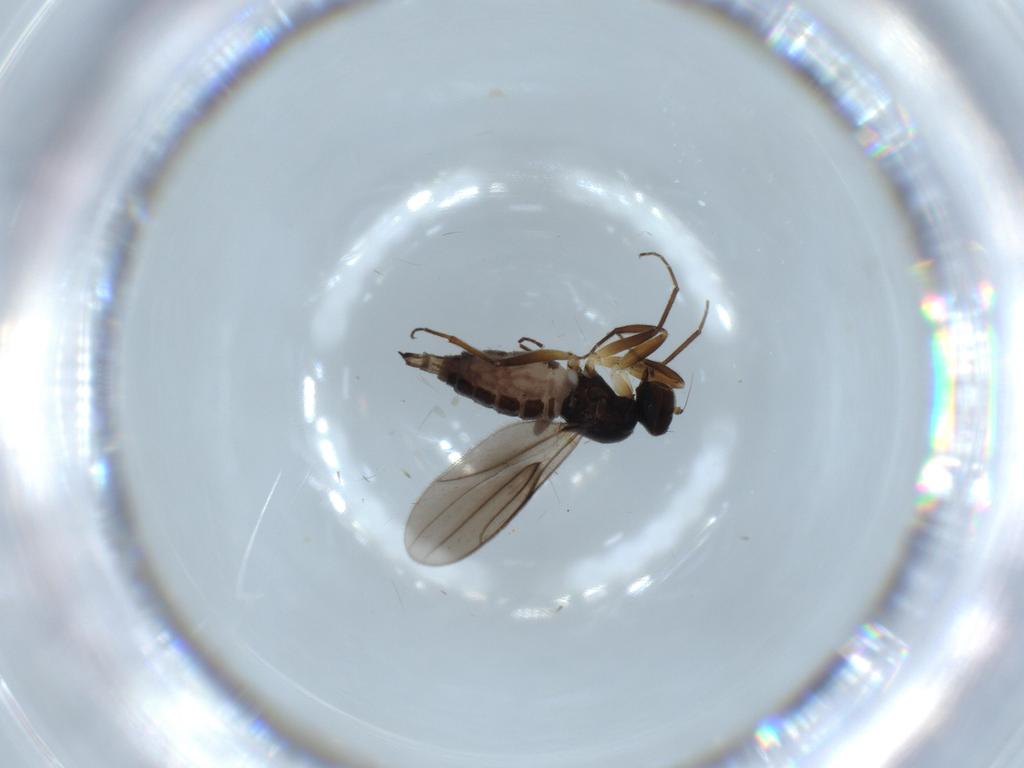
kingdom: Animalia
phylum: Arthropoda
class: Insecta
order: Diptera
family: Hybotidae
